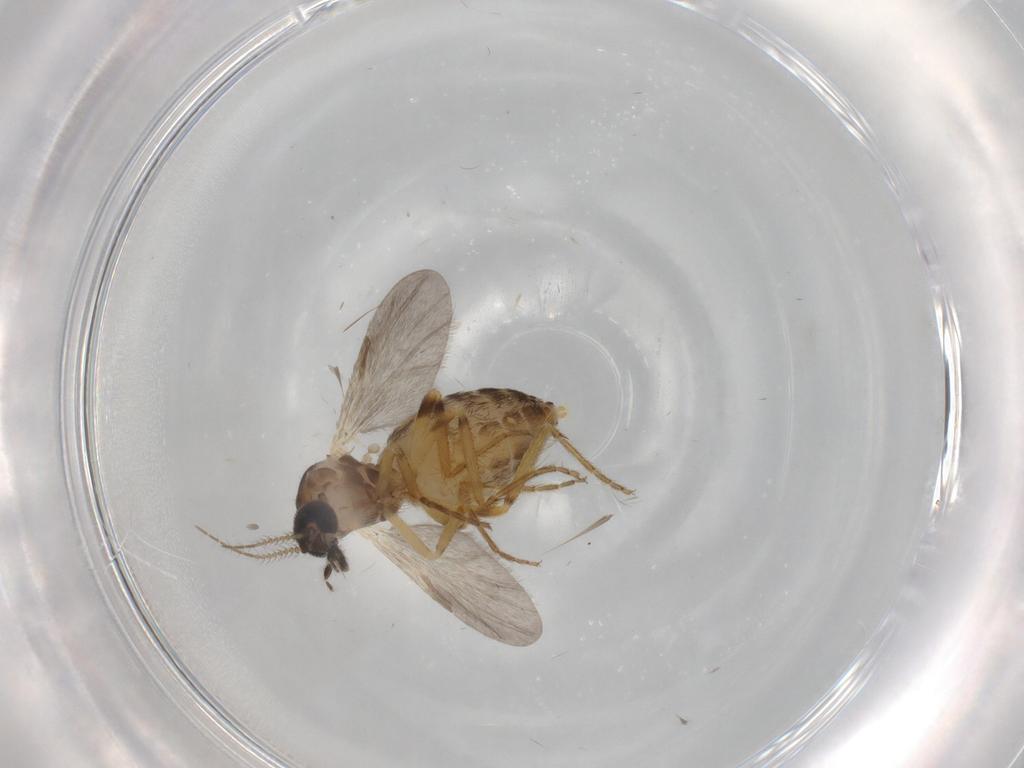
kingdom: Animalia
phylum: Arthropoda
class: Insecta
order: Diptera
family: Ceratopogonidae
